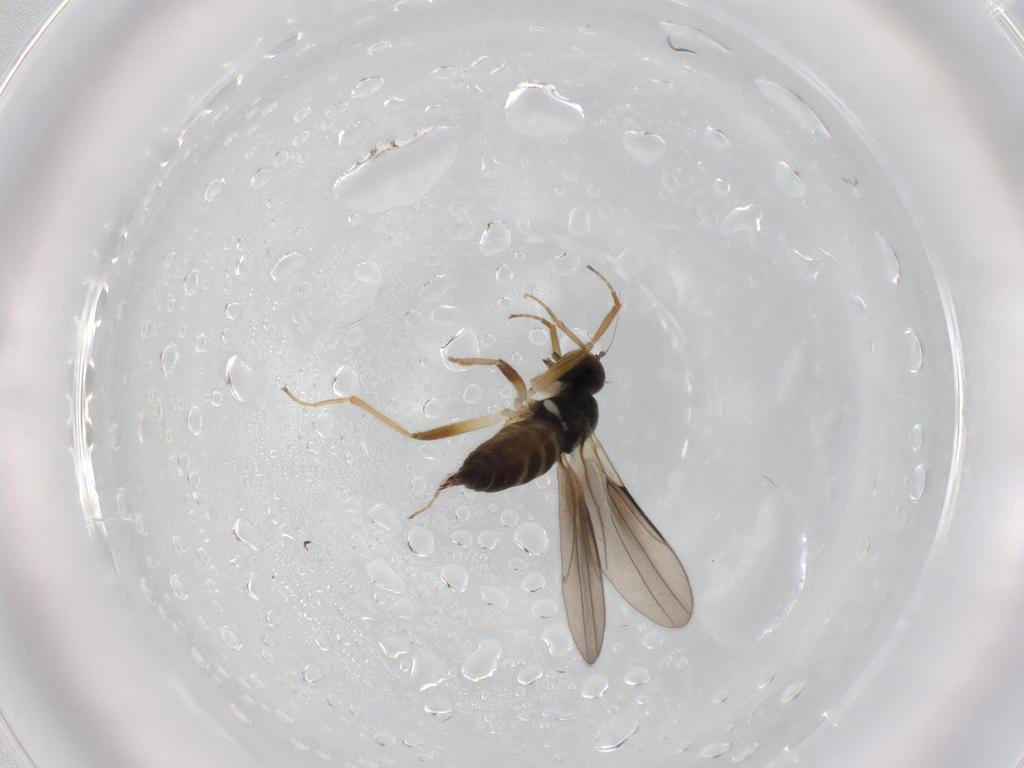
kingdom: Animalia
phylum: Arthropoda
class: Insecta
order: Diptera
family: Hybotidae
